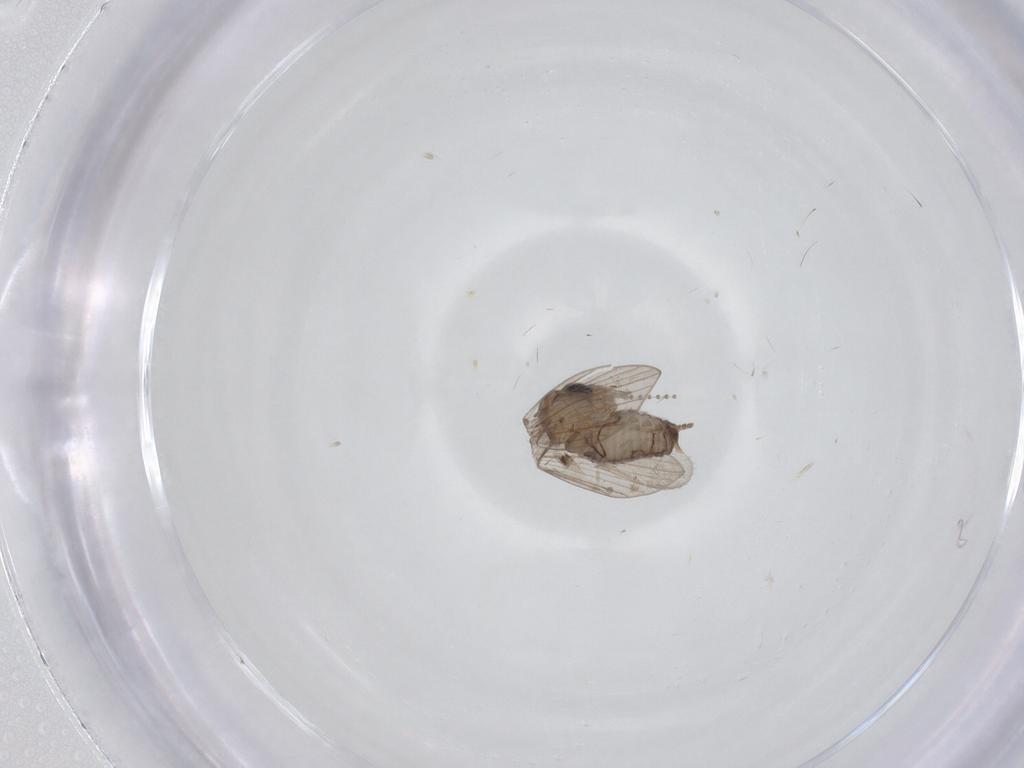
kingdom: Animalia
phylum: Arthropoda
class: Insecta
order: Diptera
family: Psychodidae
